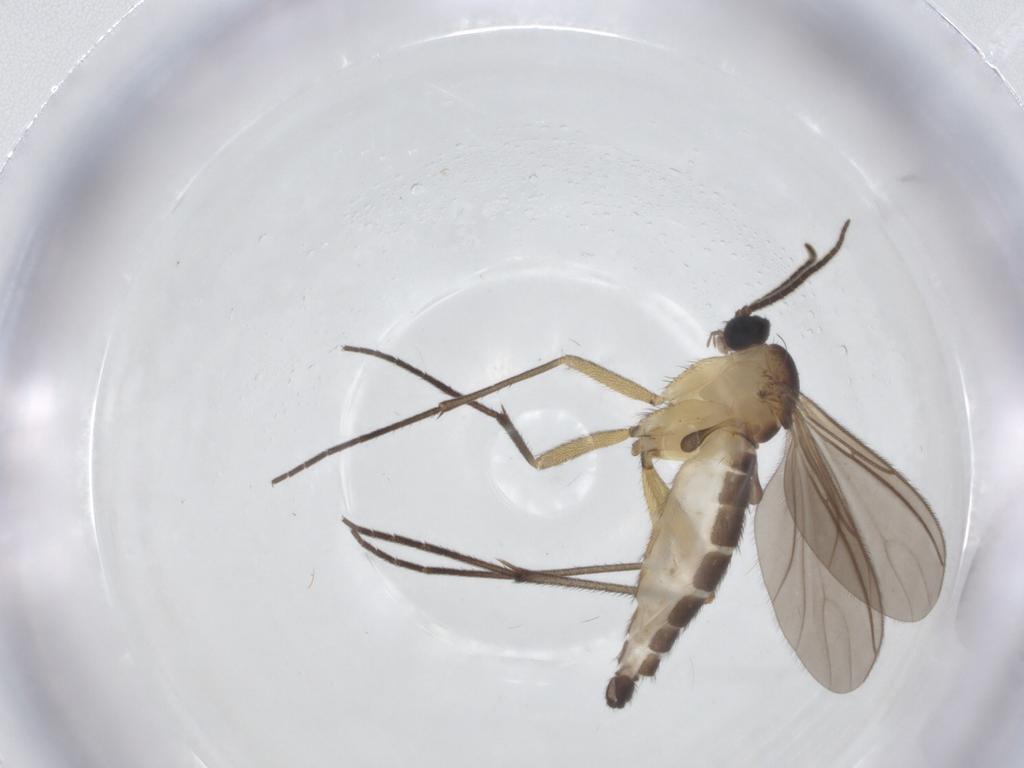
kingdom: Animalia
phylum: Arthropoda
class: Insecta
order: Diptera
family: Sciaridae
